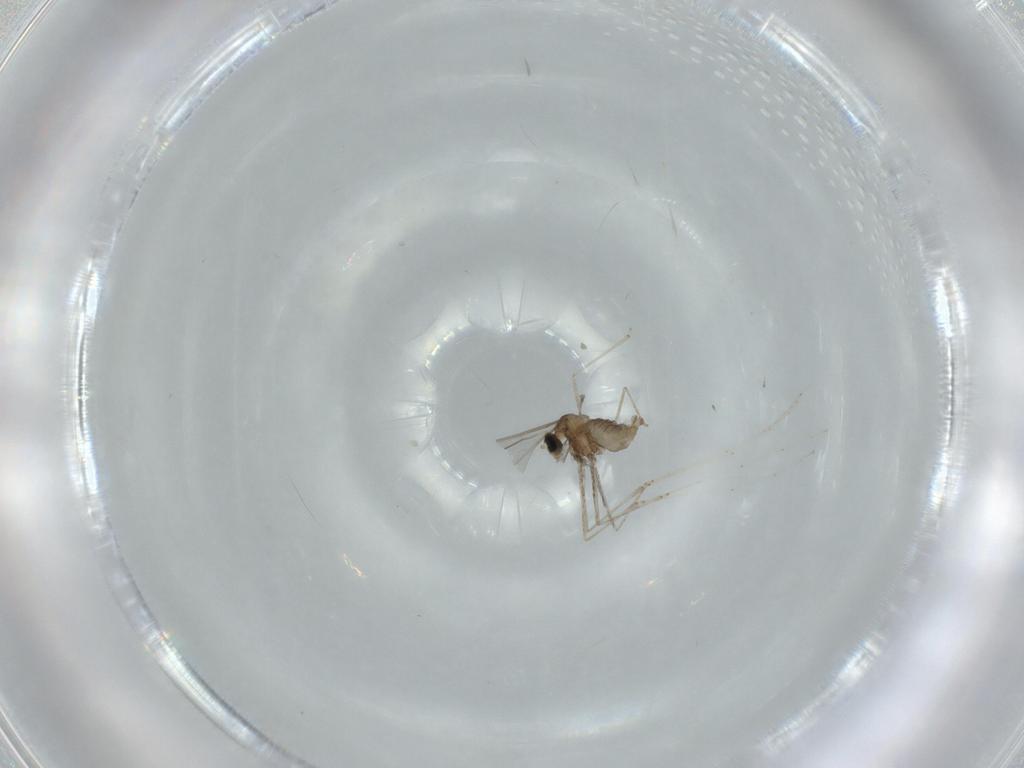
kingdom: Animalia
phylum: Arthropoda
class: Insecta
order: Diptera
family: Cecidomyiidae
